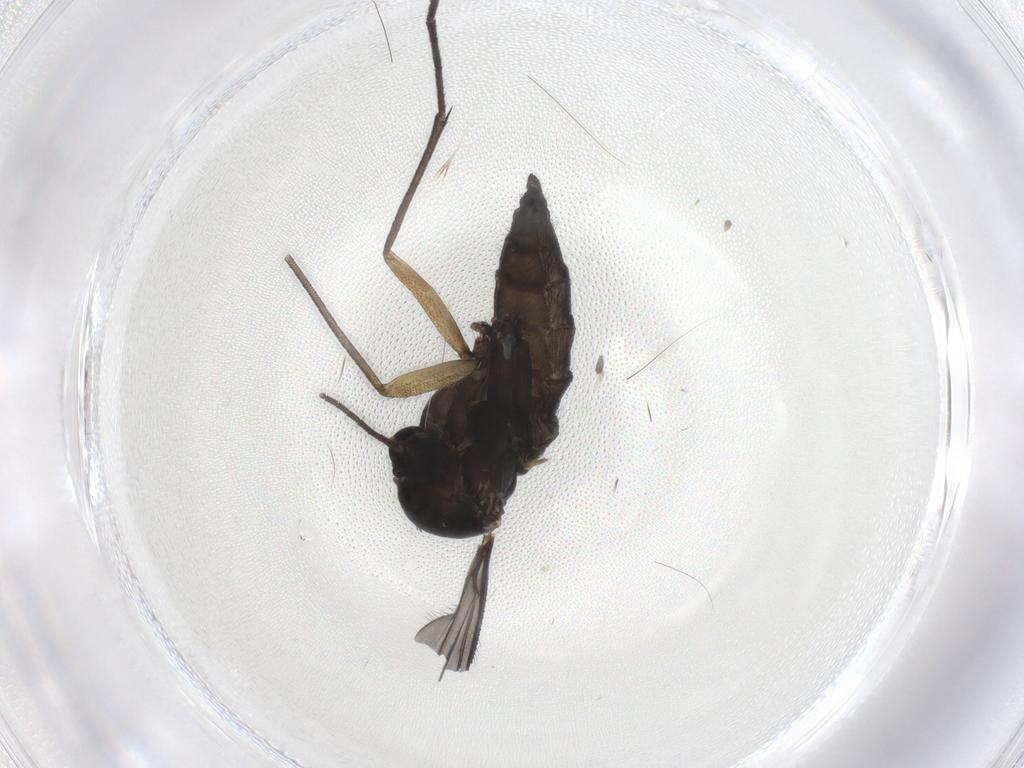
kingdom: Animalia
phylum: Arthropoda
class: Insecta
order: Diptera
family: Sciaridae
